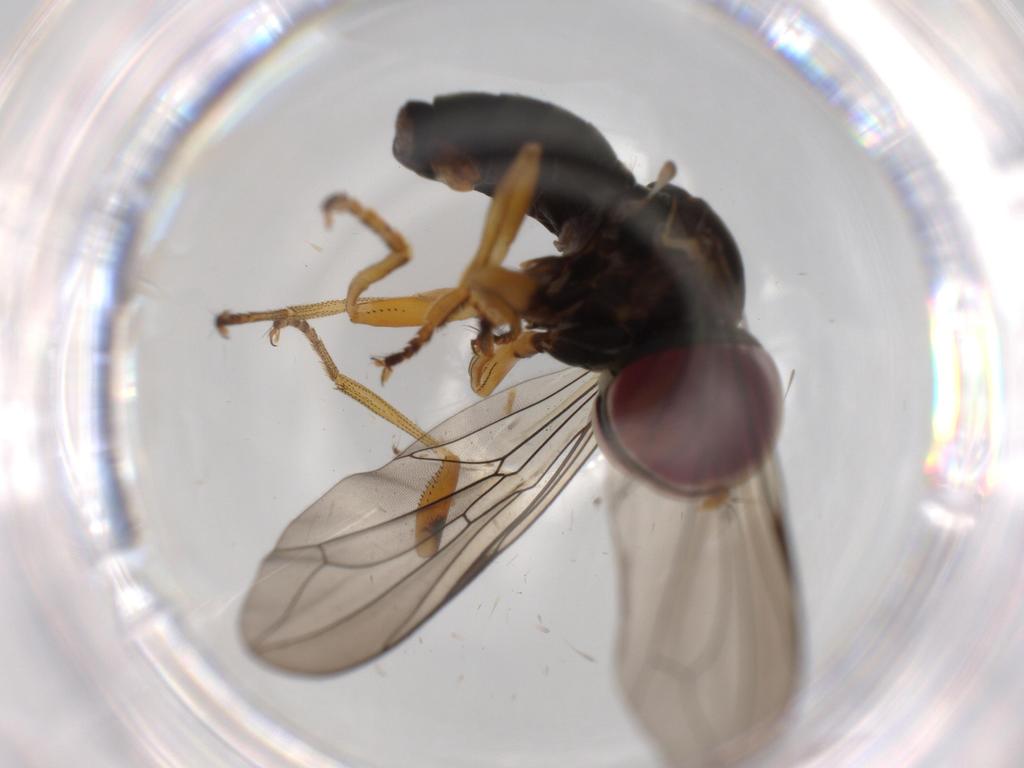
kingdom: Animalia
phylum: Arthropoda
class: Insecta
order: Diptera
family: Sciaridae
